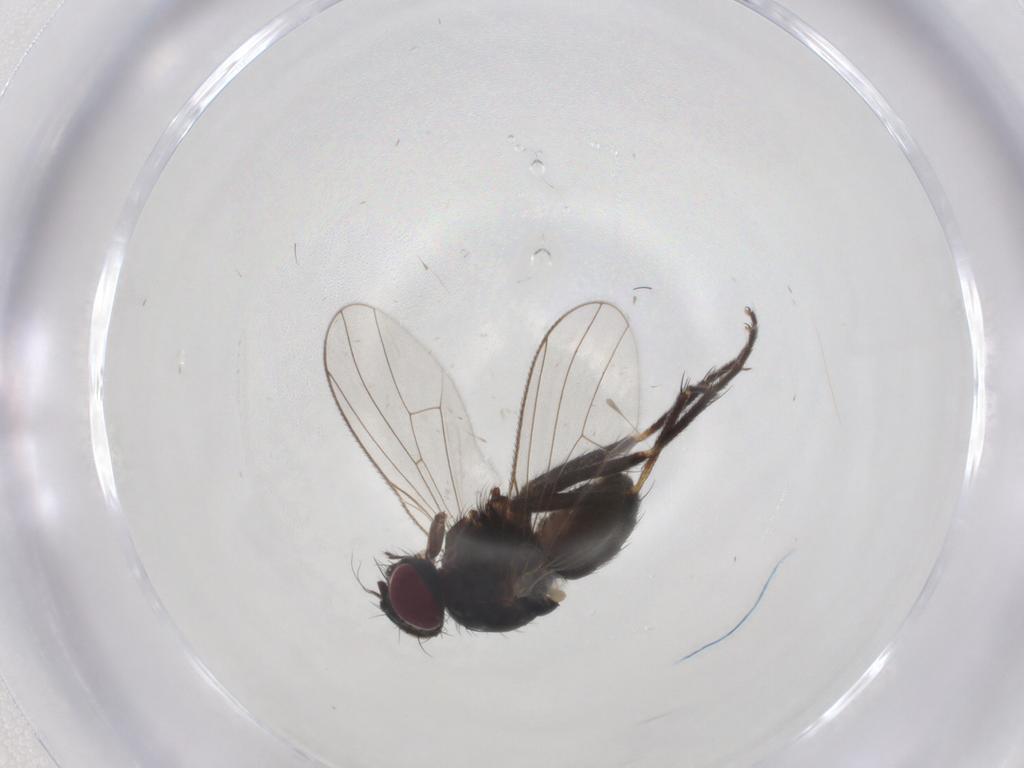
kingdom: Animalia
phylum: Arthropoda
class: Insecta
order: Diptera
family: Muscidae
